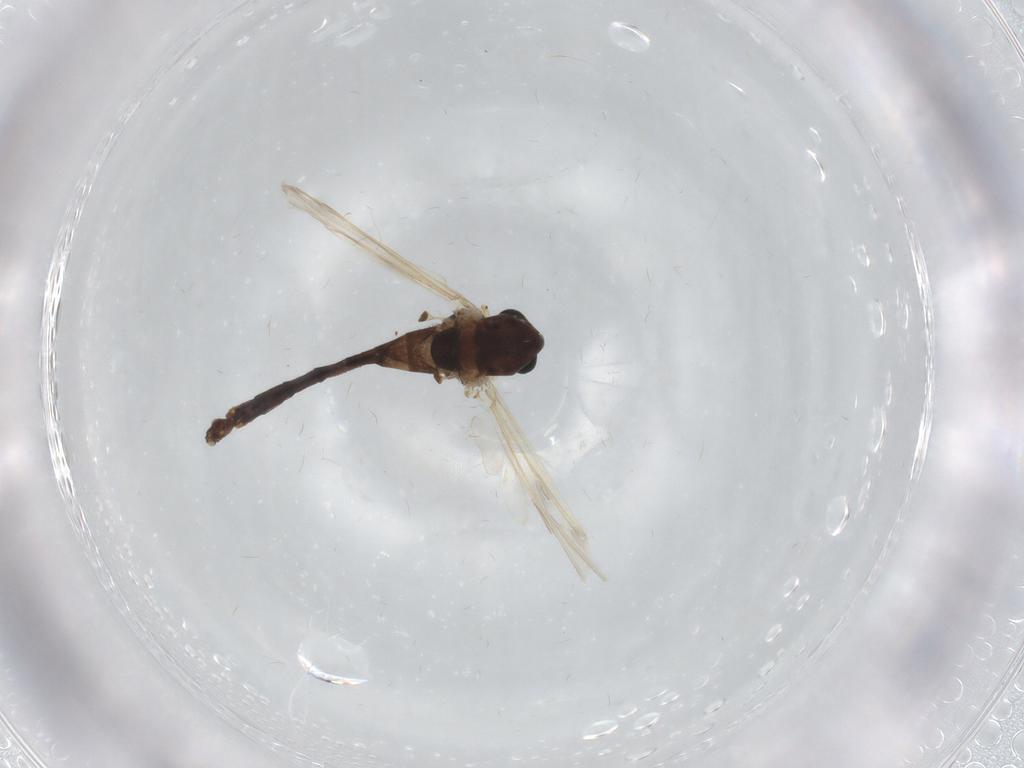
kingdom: Animalia
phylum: Arthropoda
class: Insecta
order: Diptera
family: Chironomidae
